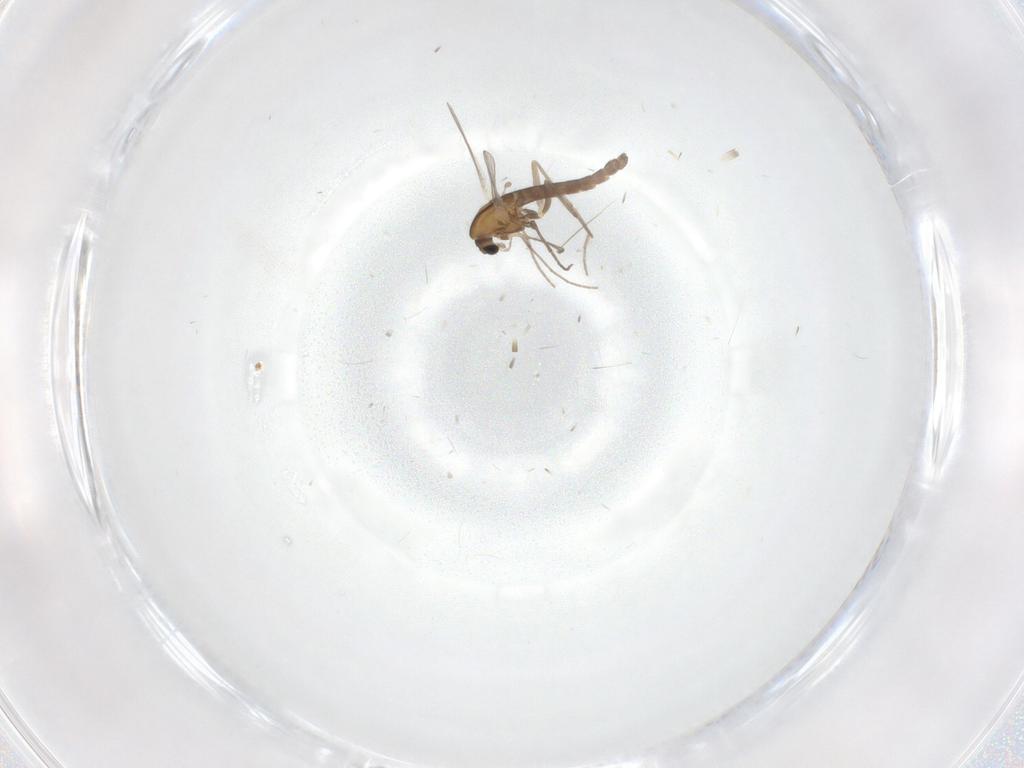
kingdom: Animalia
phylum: Arthropoda
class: Insecta
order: Diptera
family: Chironomidae
